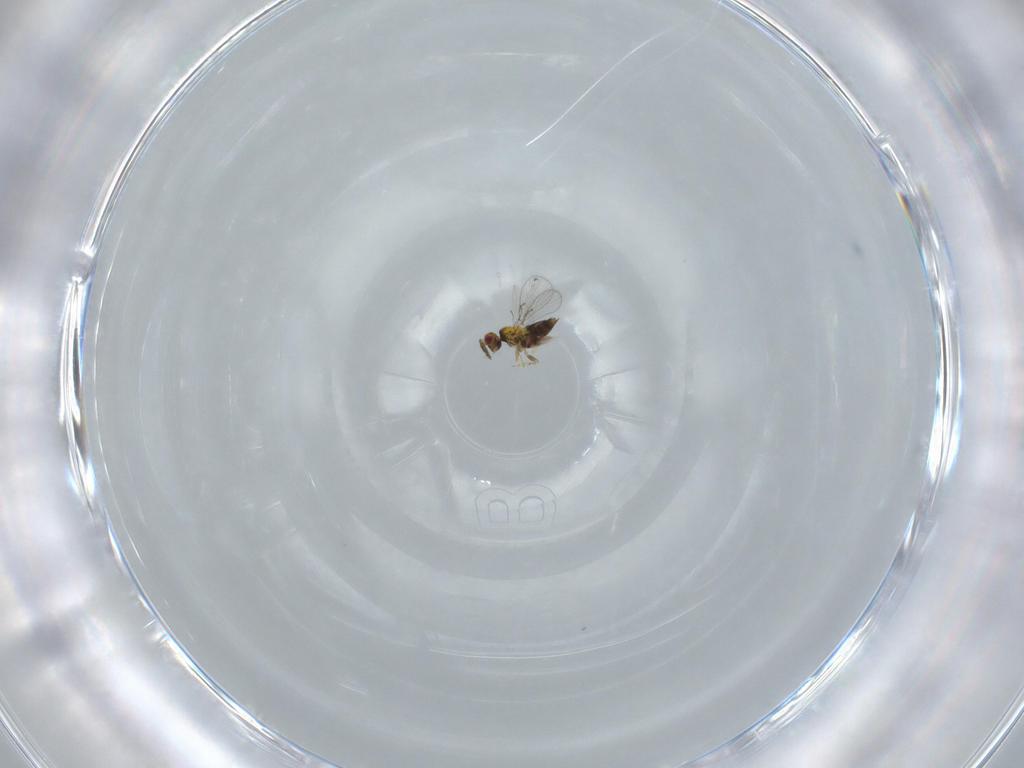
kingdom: Animalia
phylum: Arthropoda
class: Insecta
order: Hymenoptera
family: Trichogrammatidae
